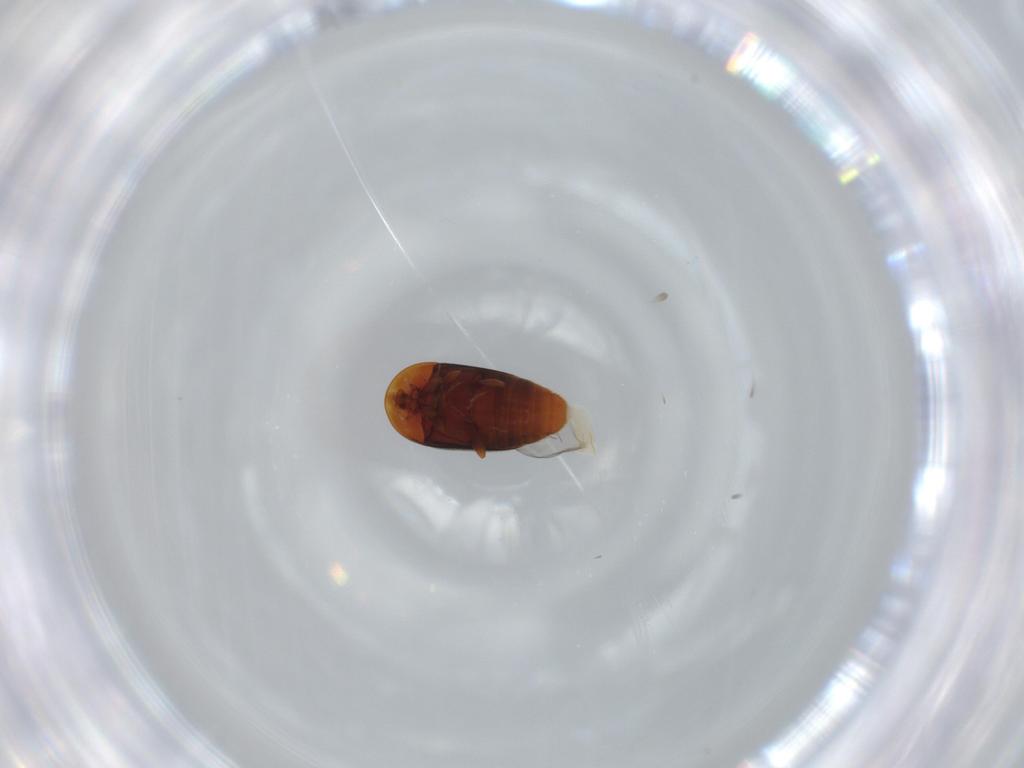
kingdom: Animalia
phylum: Arthropoda
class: Insecta
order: Coleoptera
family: Corylophidae
